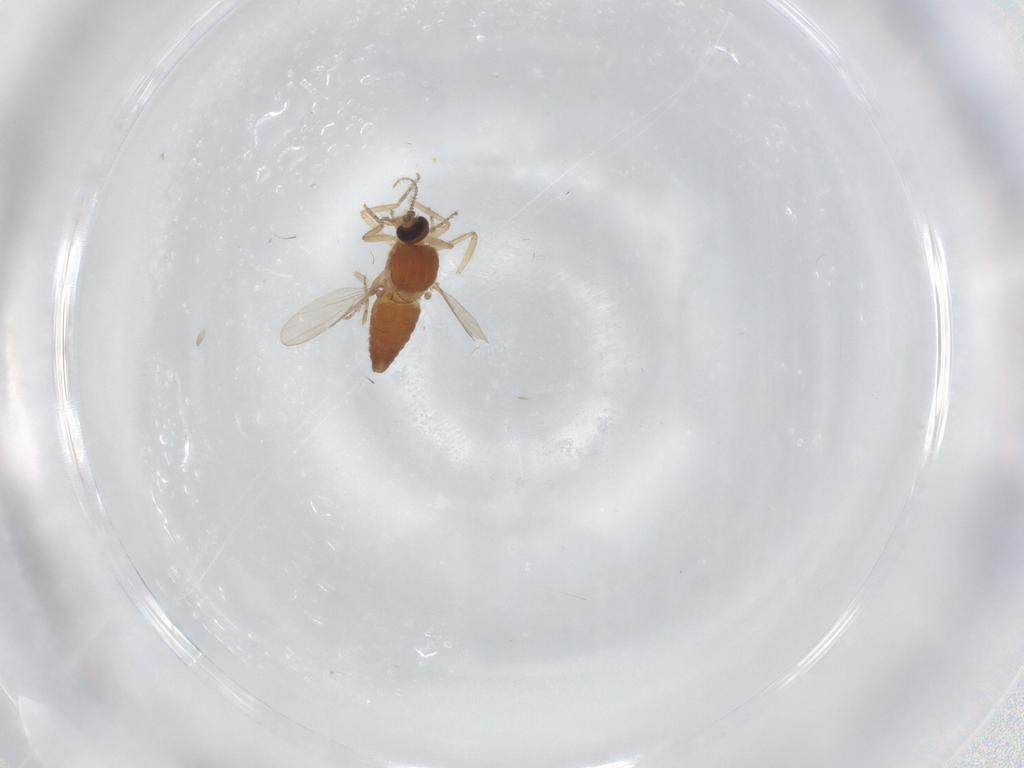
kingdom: Animalia
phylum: Arthropoda
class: Insecta
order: Diptera
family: Ceratopogonidae
